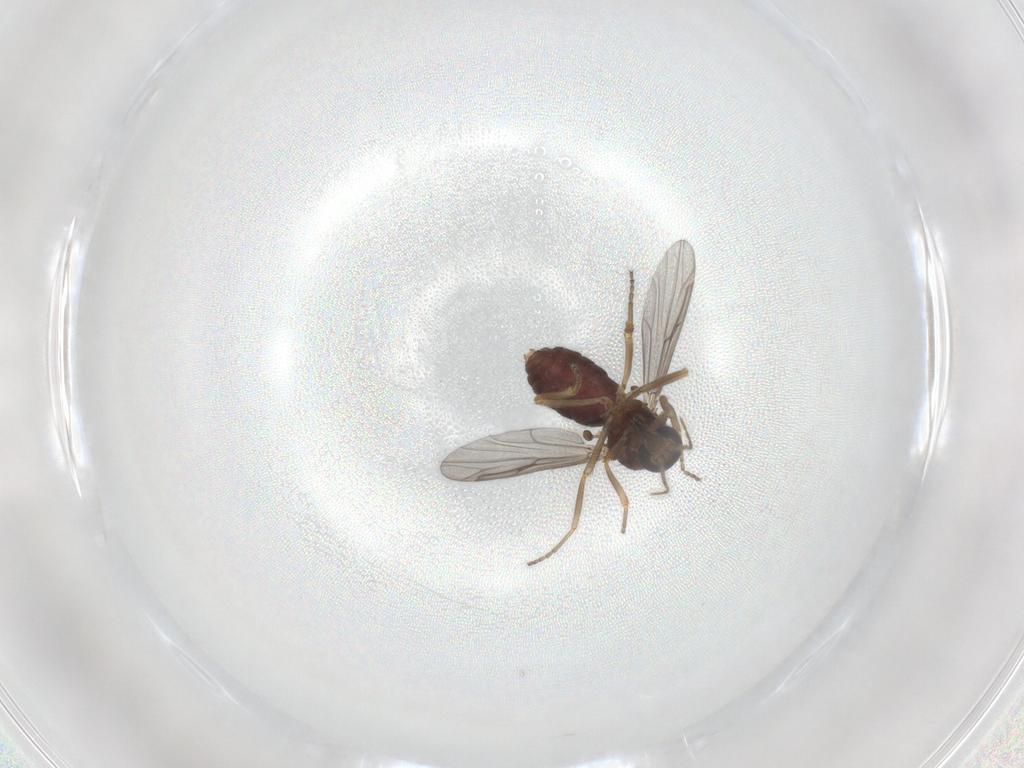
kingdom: Animalia
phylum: Arthropoda
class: Insecta
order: Diptera
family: Ceratopogonidae
